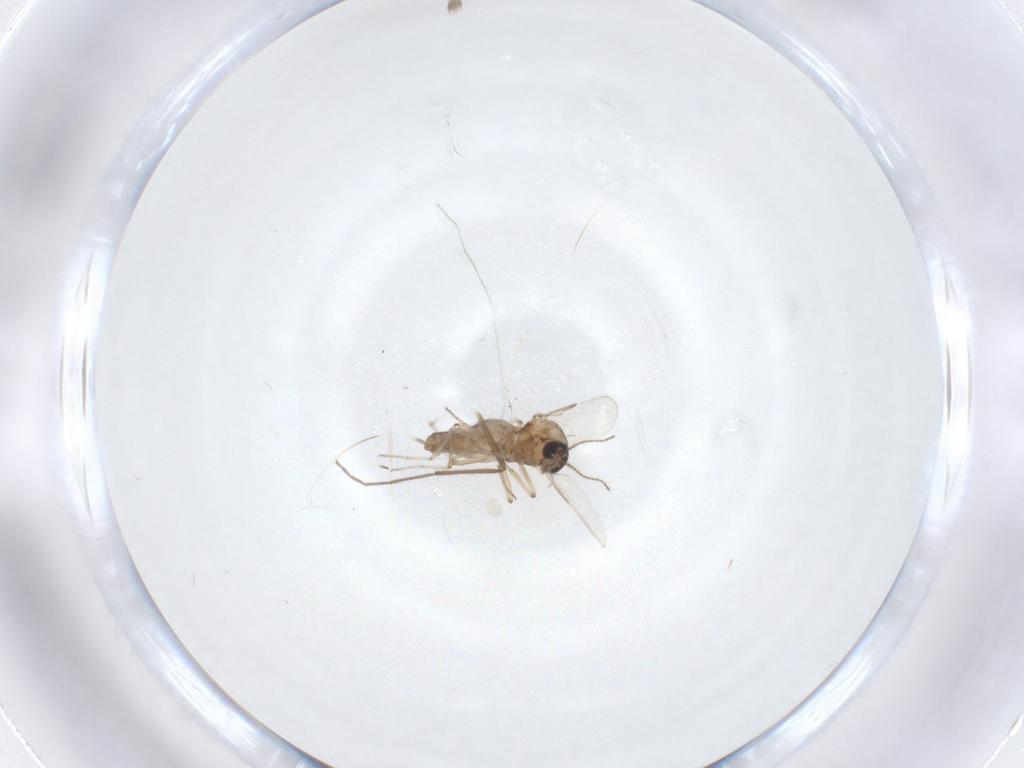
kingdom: Animalia
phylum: Arthropoda
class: Insecta
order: Diptera
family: Ceratopogonidae
